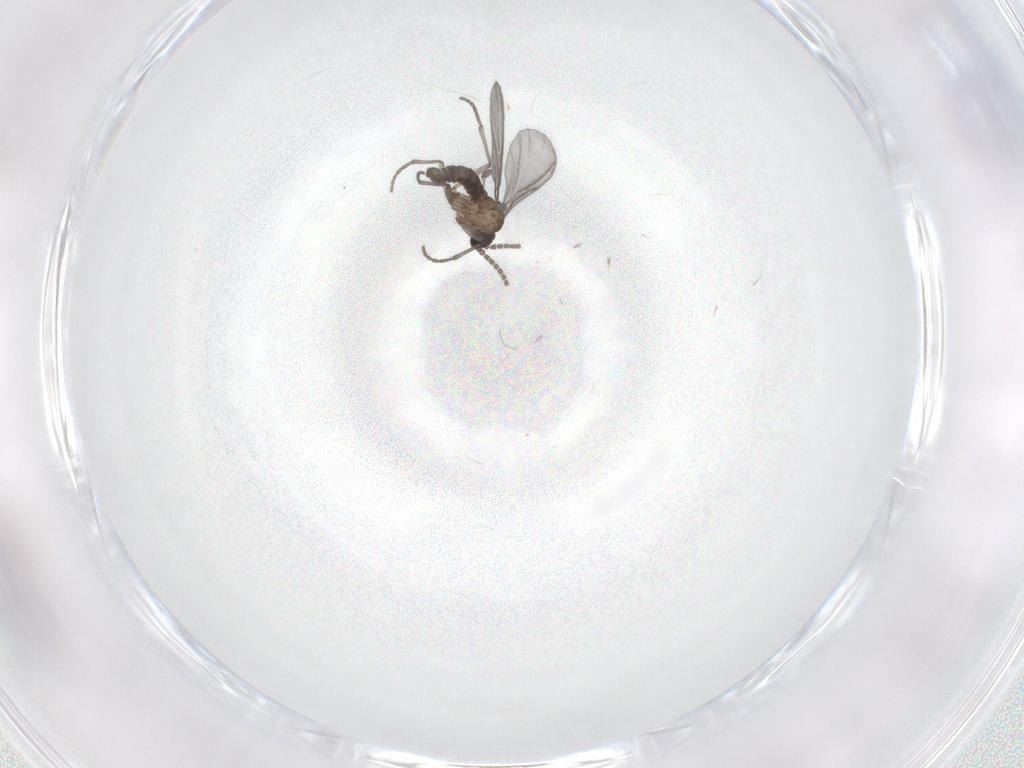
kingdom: Animalia
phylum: Arthropoda
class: Insecta
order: Diptera
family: Sciaridae
